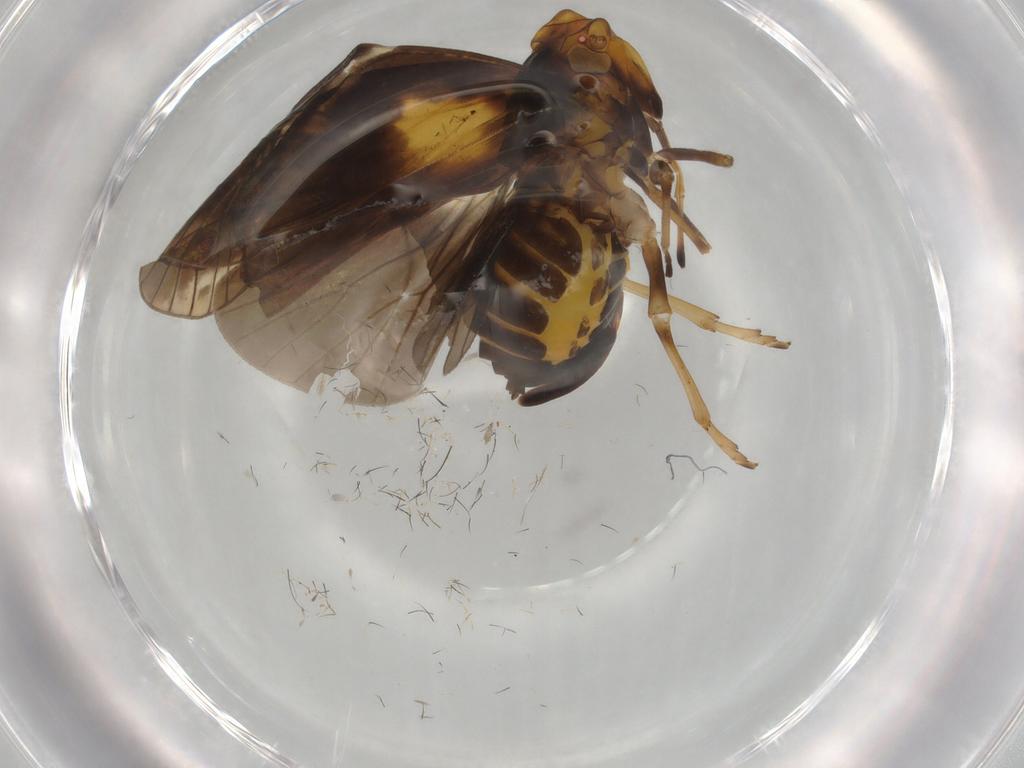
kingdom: Animalia
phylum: Arthropoda
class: Insecta
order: Hemiptera
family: Cixiidae
